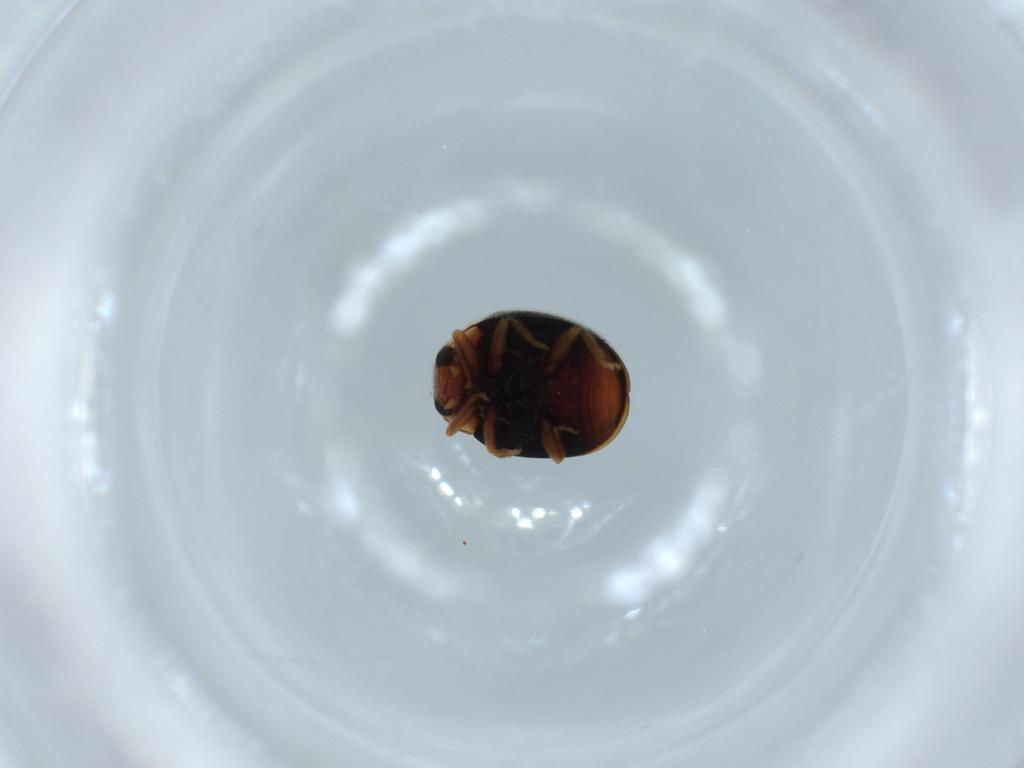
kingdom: Animalia
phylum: Arthropoda
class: Insecta
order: Coleoptera
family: Coccinellidae
